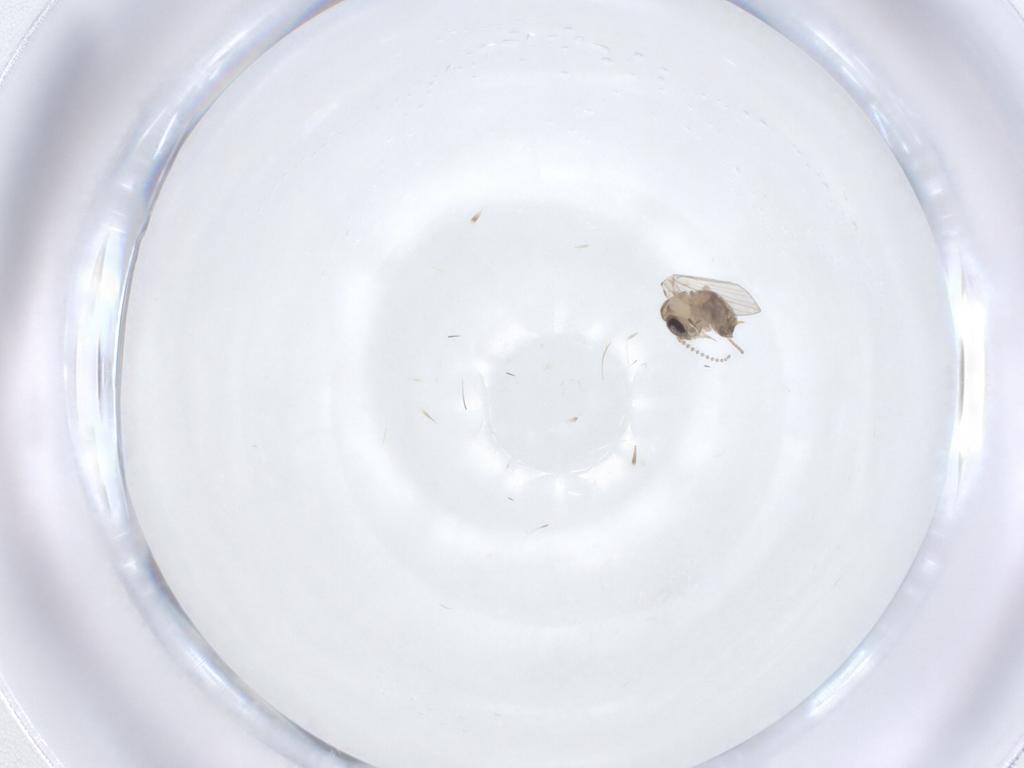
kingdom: Animalia
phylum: Arthropoda
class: Insecta
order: Diptera
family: Psychodidae
